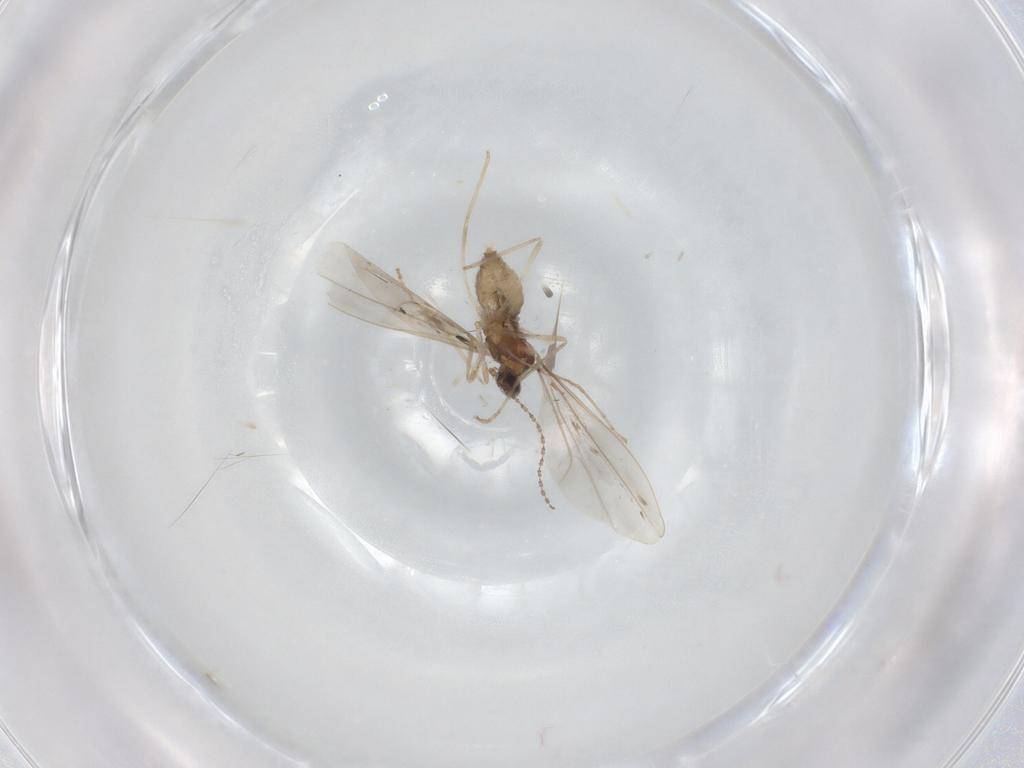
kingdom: Animalia
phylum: Arthropoda
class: Insecta
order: Diptera
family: Cecidomyiidae
